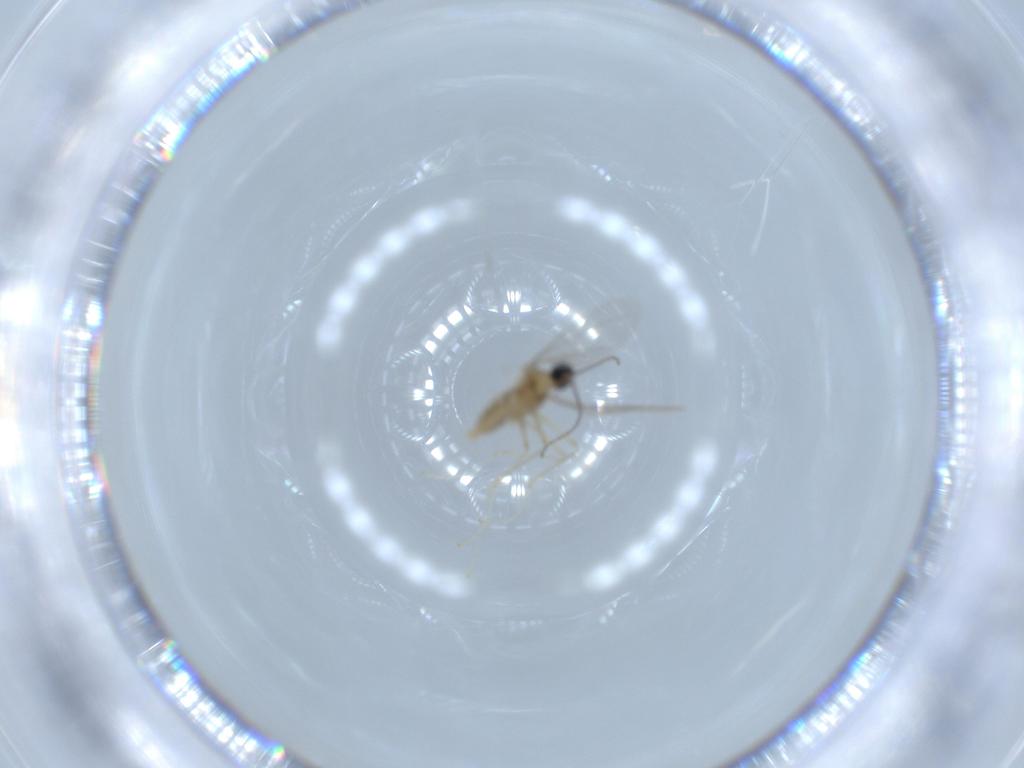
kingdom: Animalia
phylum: Arthropoda
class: Insecta
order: Diptera
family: Cecidomyiidae
